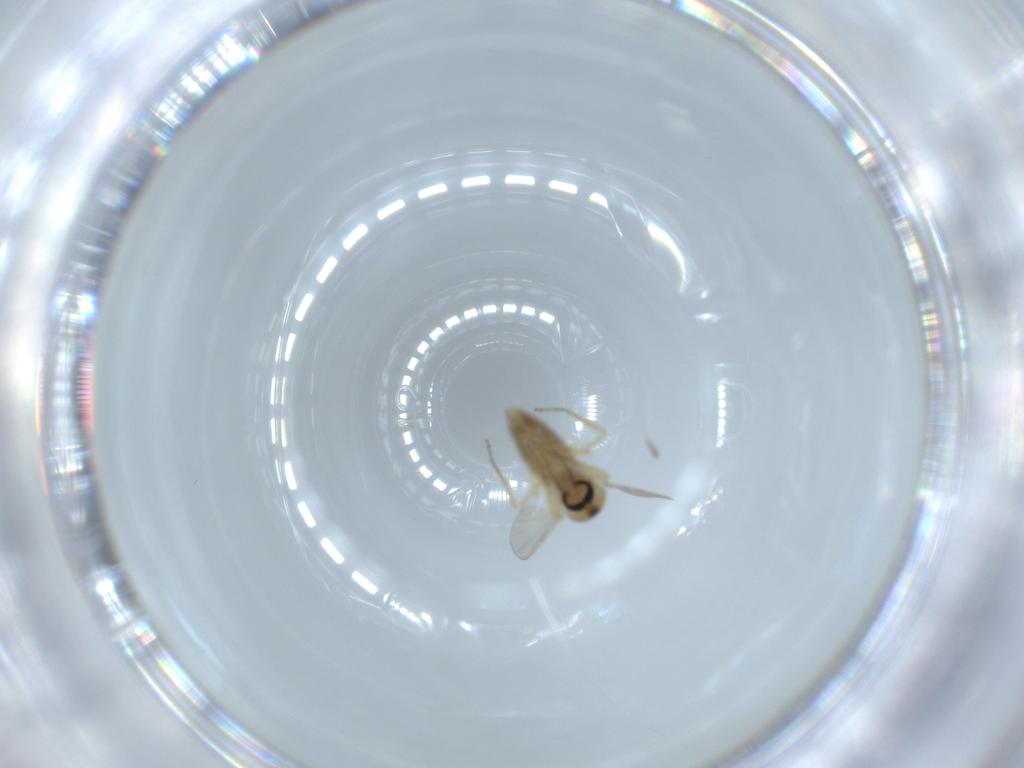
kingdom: Animalia
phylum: Arthropoda
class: Insecta
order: Diptera
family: Ceratopogonidae
